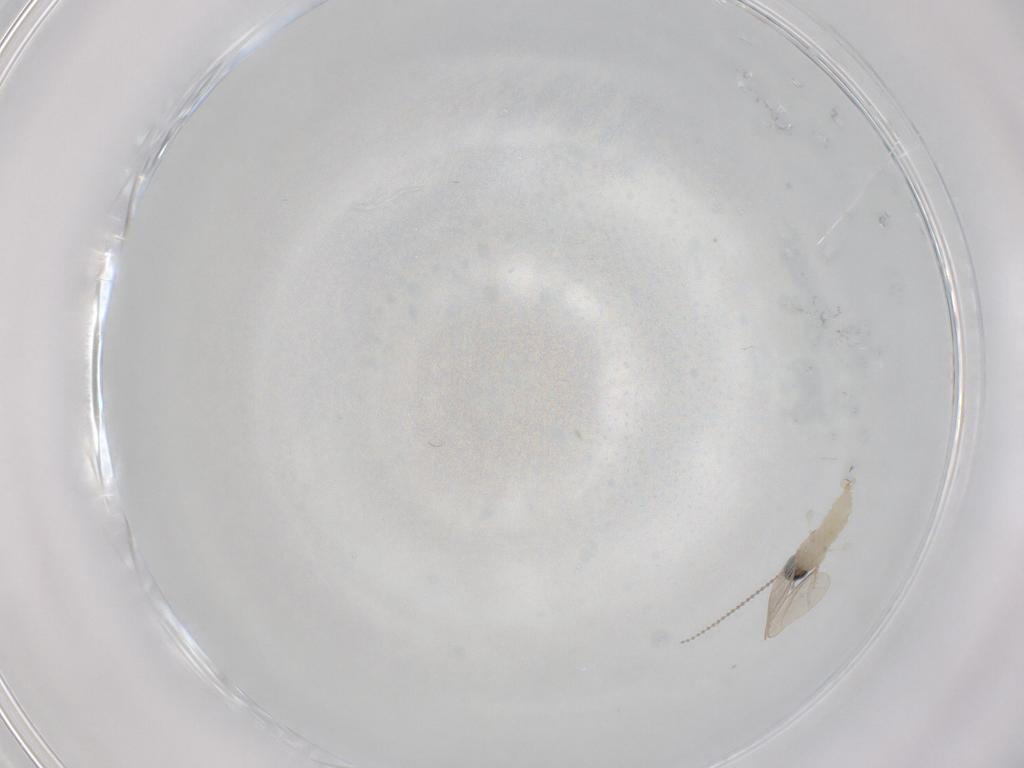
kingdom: Animalia
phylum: Arthropoda
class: Insecta
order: Diptera
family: Cecidomyiidae
